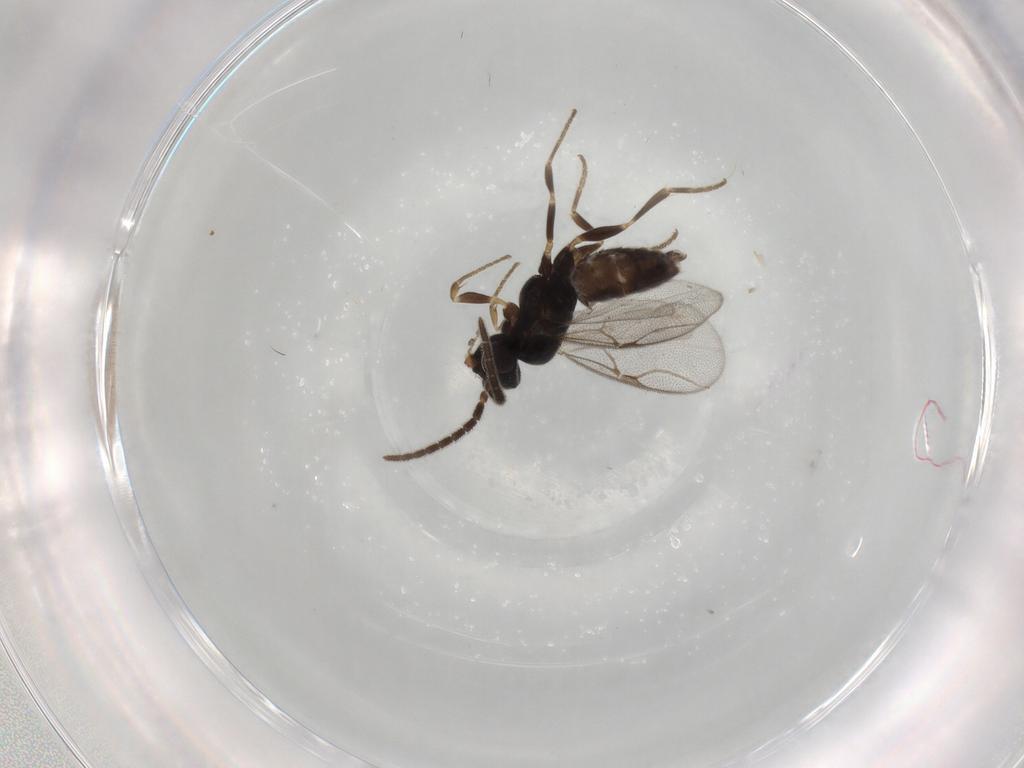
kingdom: Animalia
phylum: Arthropoda
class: Insecta
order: Hymenoptera
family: Dryinidae
